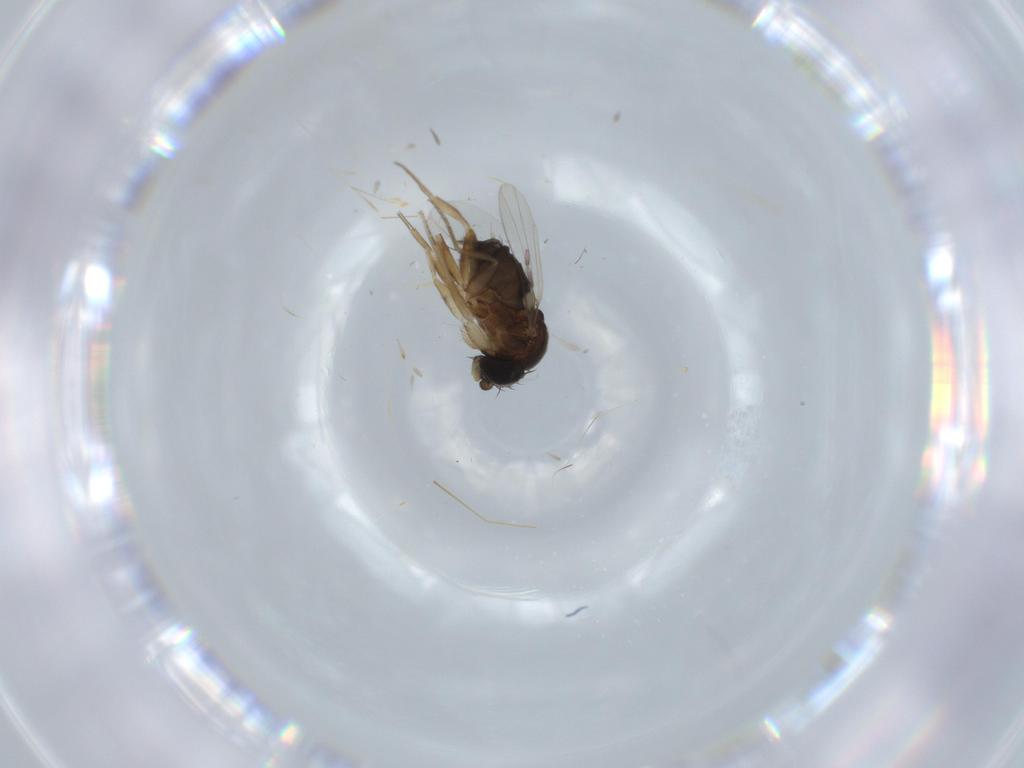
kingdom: Animalia
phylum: Arthropoda
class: Insecta
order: Diptera
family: Cecidomyiidae
